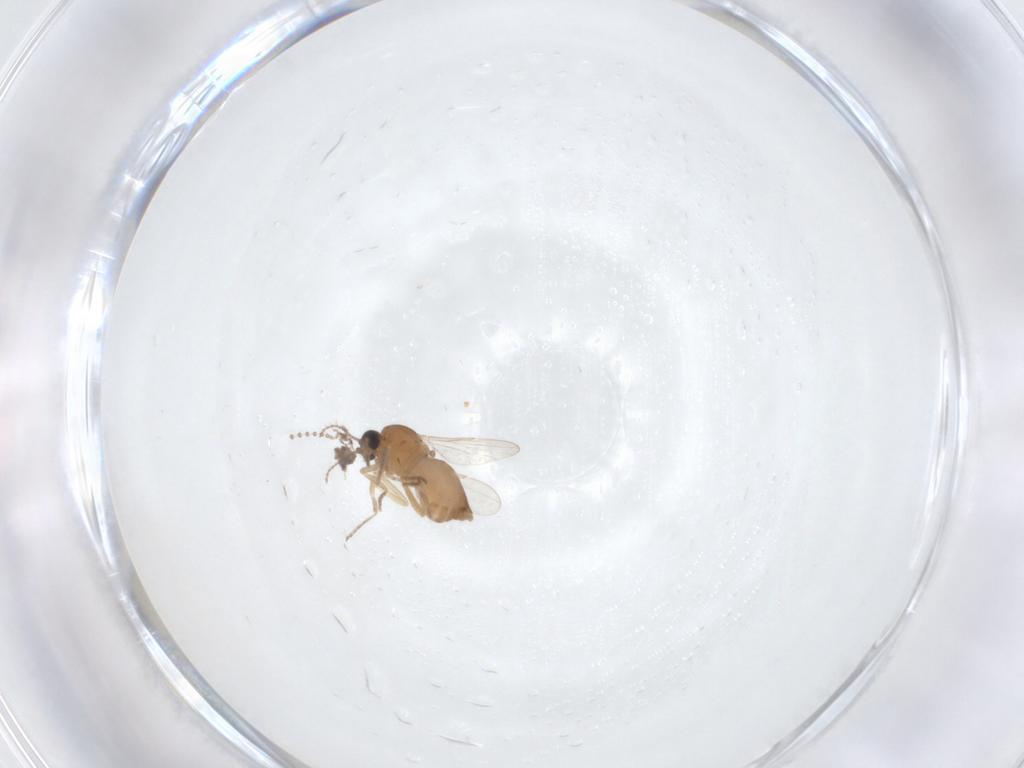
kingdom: Animalia
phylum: Arthropoda
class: Insecta
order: Diptera
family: Ceratopogonidae
